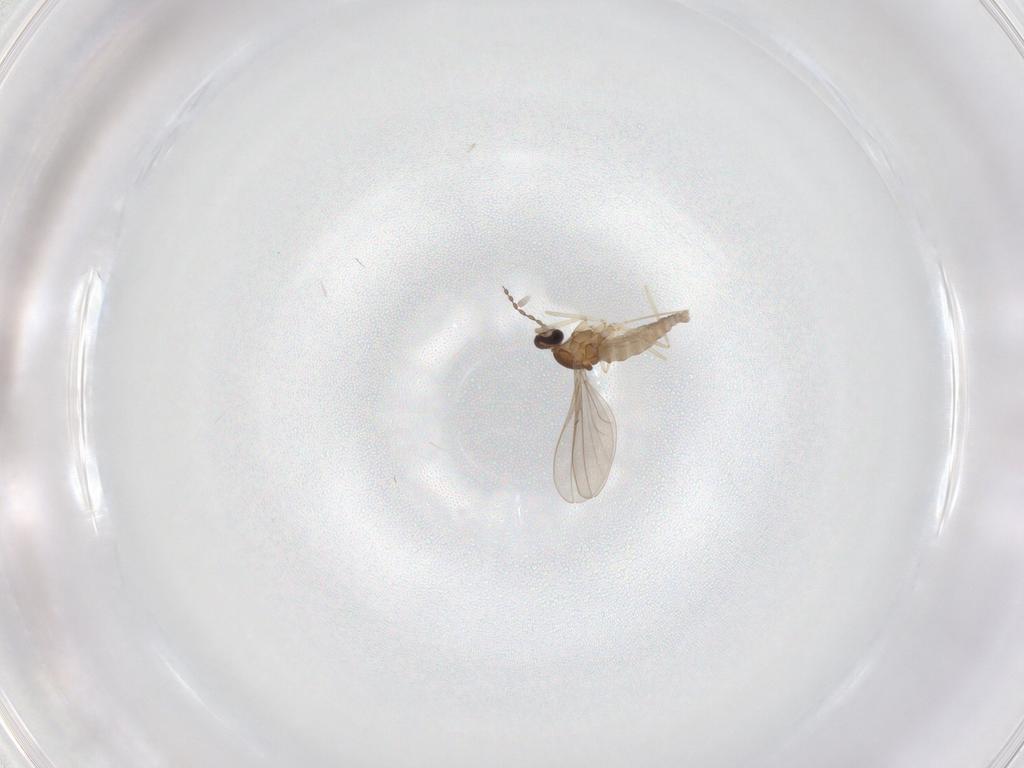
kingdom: Animalia
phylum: Arthropoda
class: Insecta
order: Diptera
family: Cecidomyiidae
